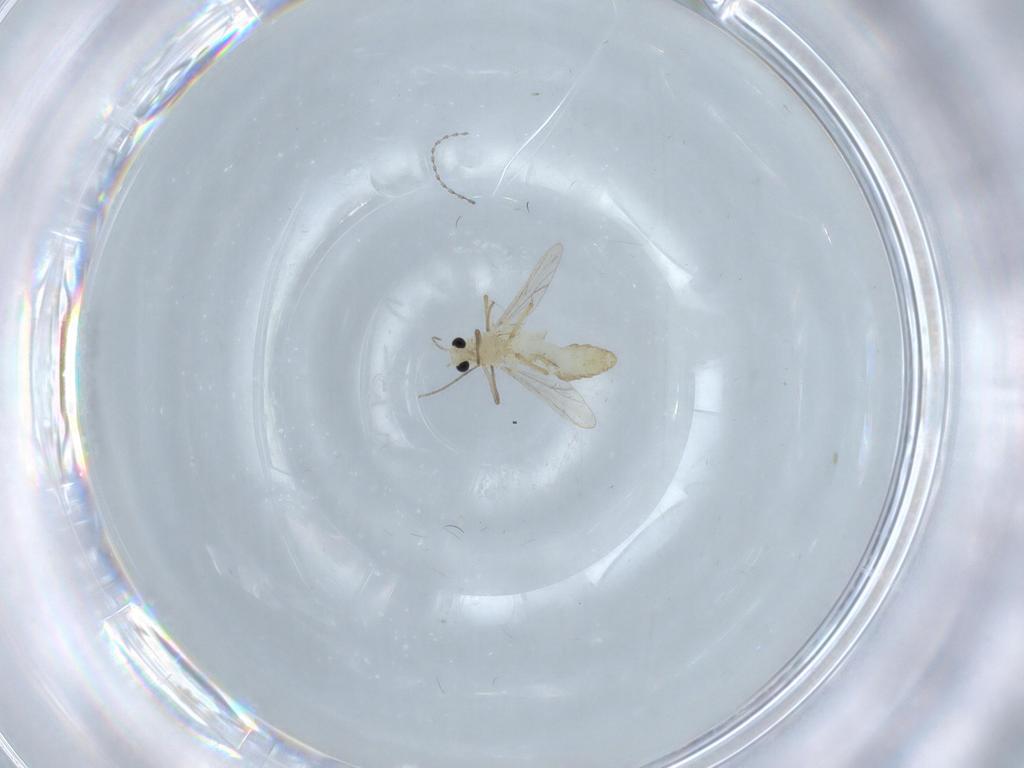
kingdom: Animalia
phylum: Arthropoda
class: Insecta
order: Diptera
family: Chironomidae
